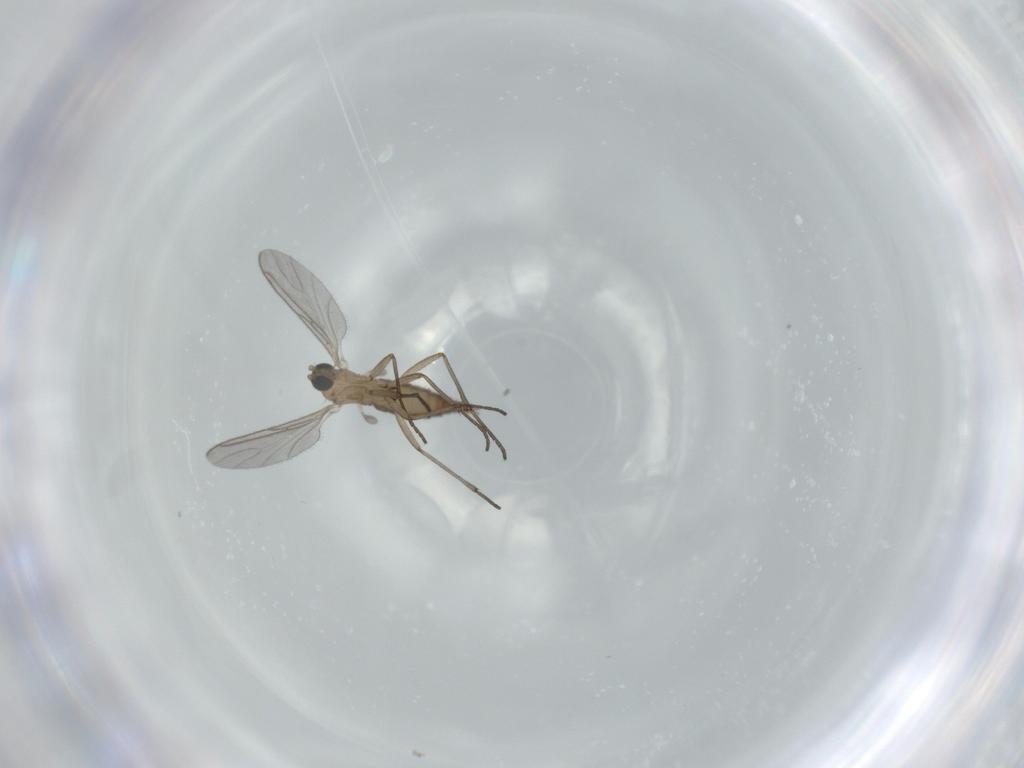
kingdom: Animalia
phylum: Arthropoda
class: Insecta
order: Diptera
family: Sciaridae
